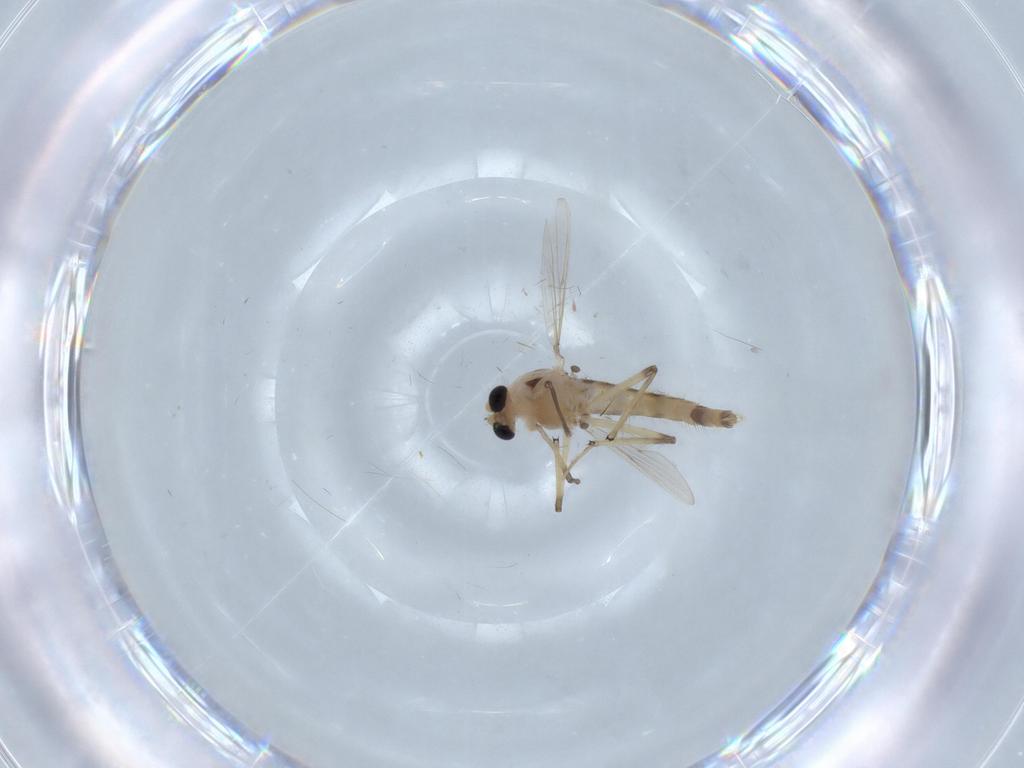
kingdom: Animalia
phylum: Arthropoda
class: Insecta
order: Diptera
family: Chironomidae
